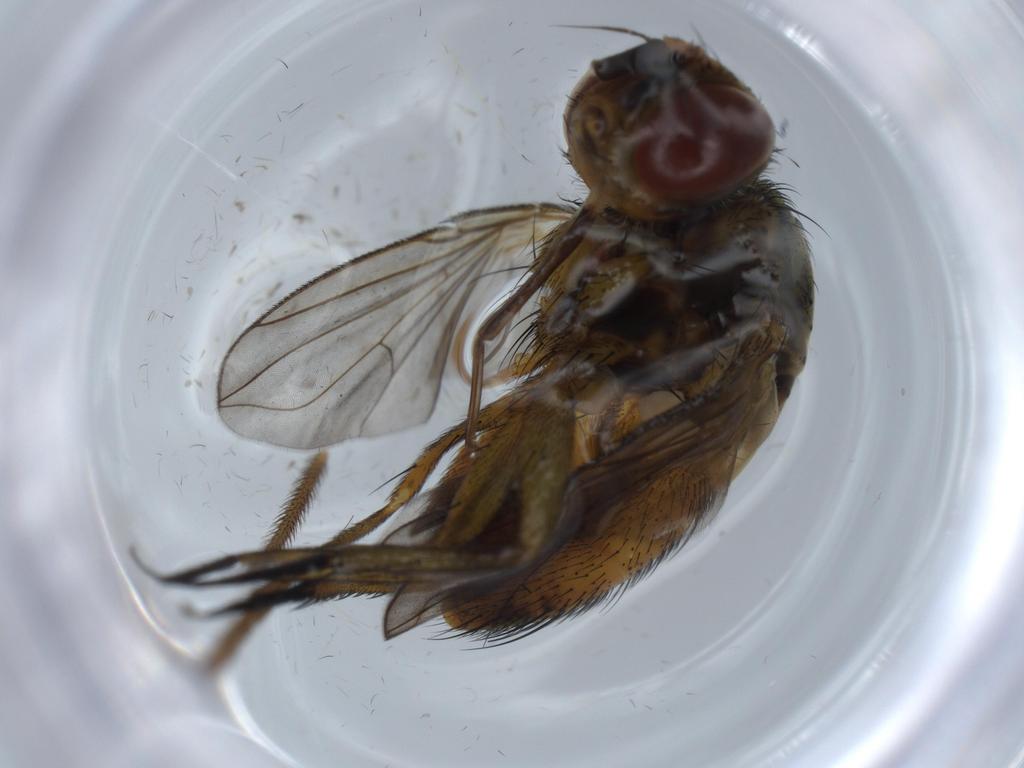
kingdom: Animalia
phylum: Arthropoda
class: Insecta
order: Diptera
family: Tachinidae
